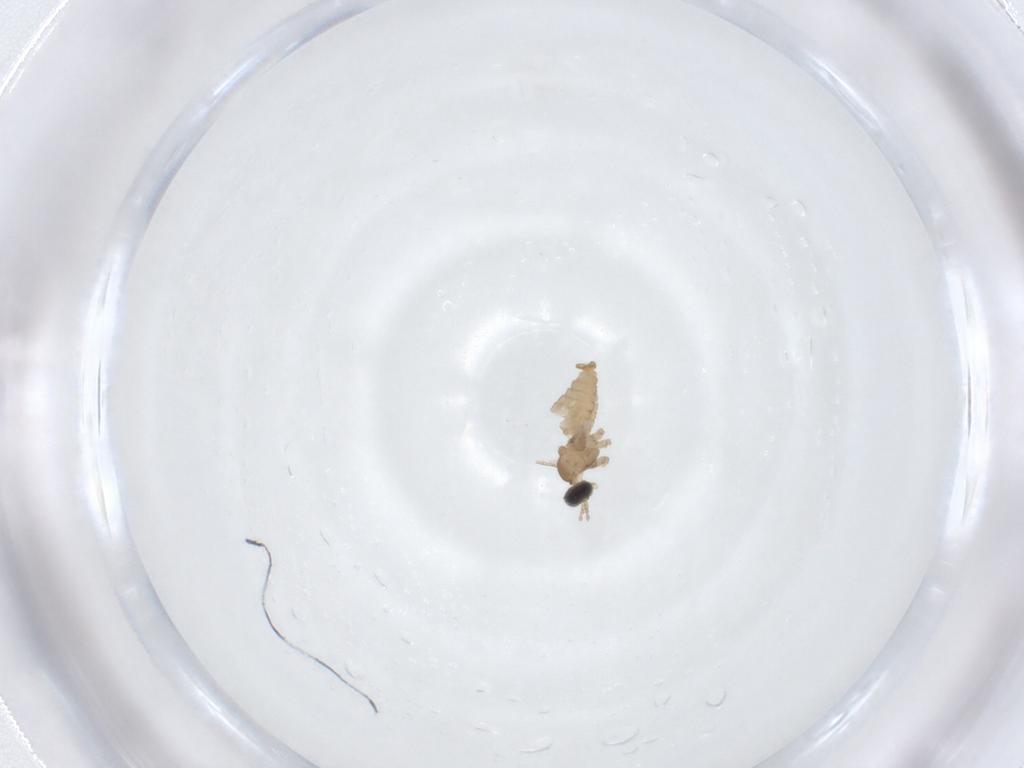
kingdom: Animalia
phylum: Arthropoda
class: Insecta
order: Diptera
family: Cecidomyiidae
